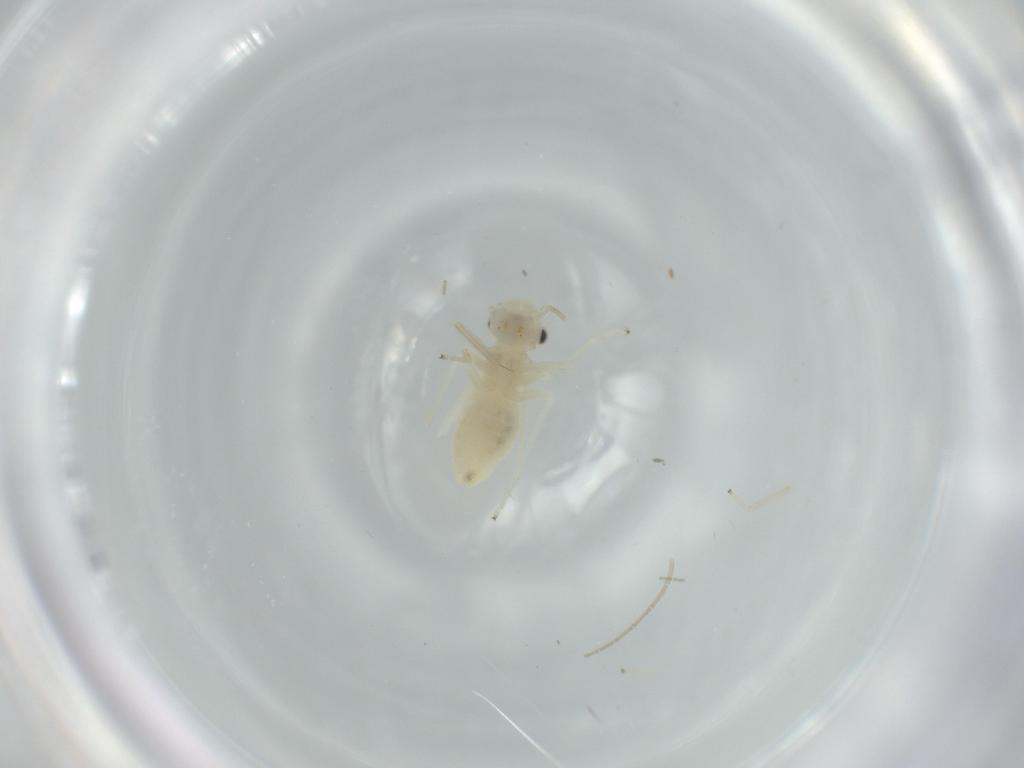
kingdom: Animalia
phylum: Arthropoda
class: Insecta
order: Psocodea
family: Caeciliusidae
